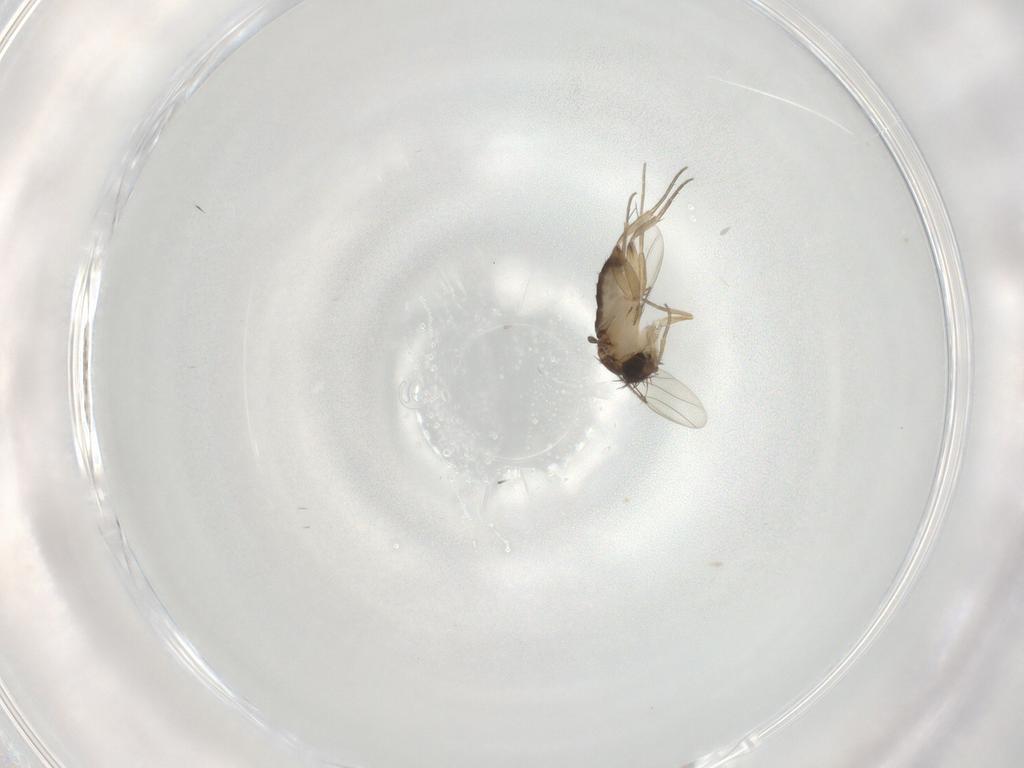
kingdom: Animalia
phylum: Arthropoda
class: Insecta
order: Diptera
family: Phoridae
